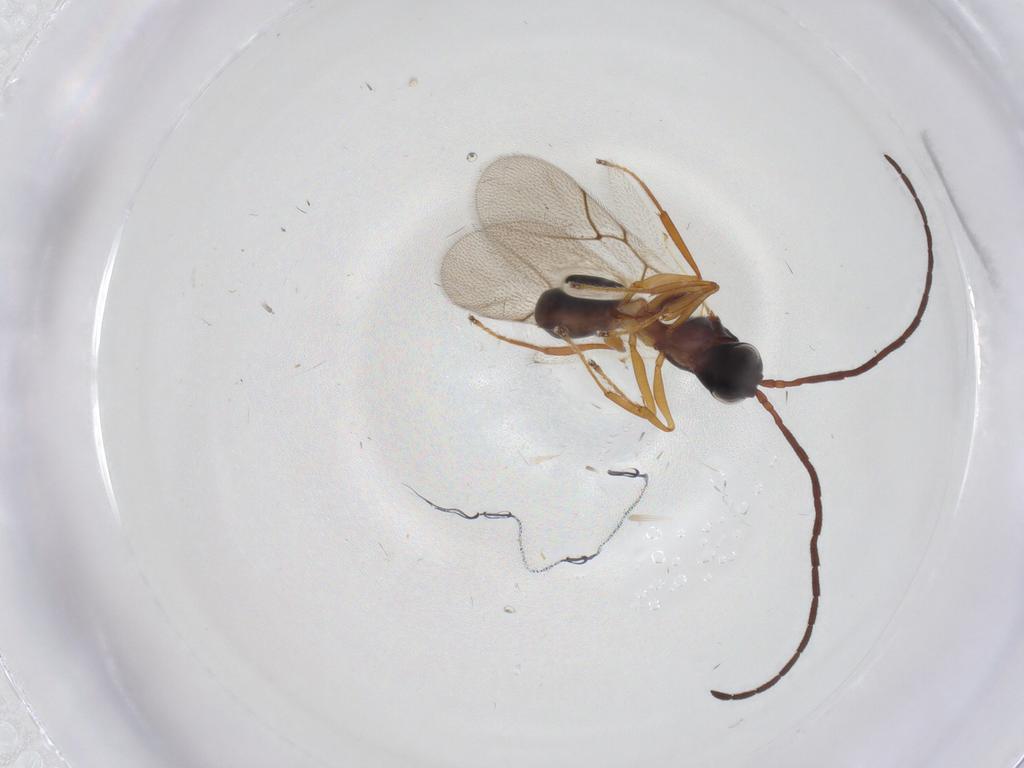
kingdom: Animalia
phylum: Arthropoda
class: Insecta
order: Hymenoptera
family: Figitidae
